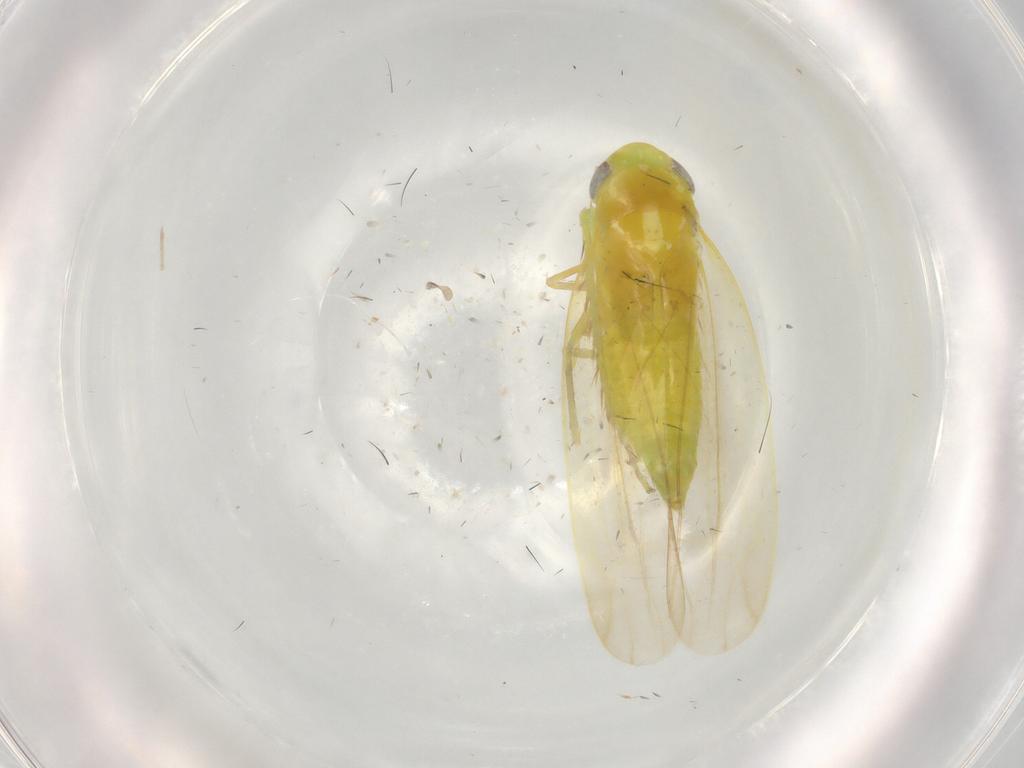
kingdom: Animalia
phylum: Arthropoda
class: Insecta
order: Hemiptera
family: Cicadellidae
